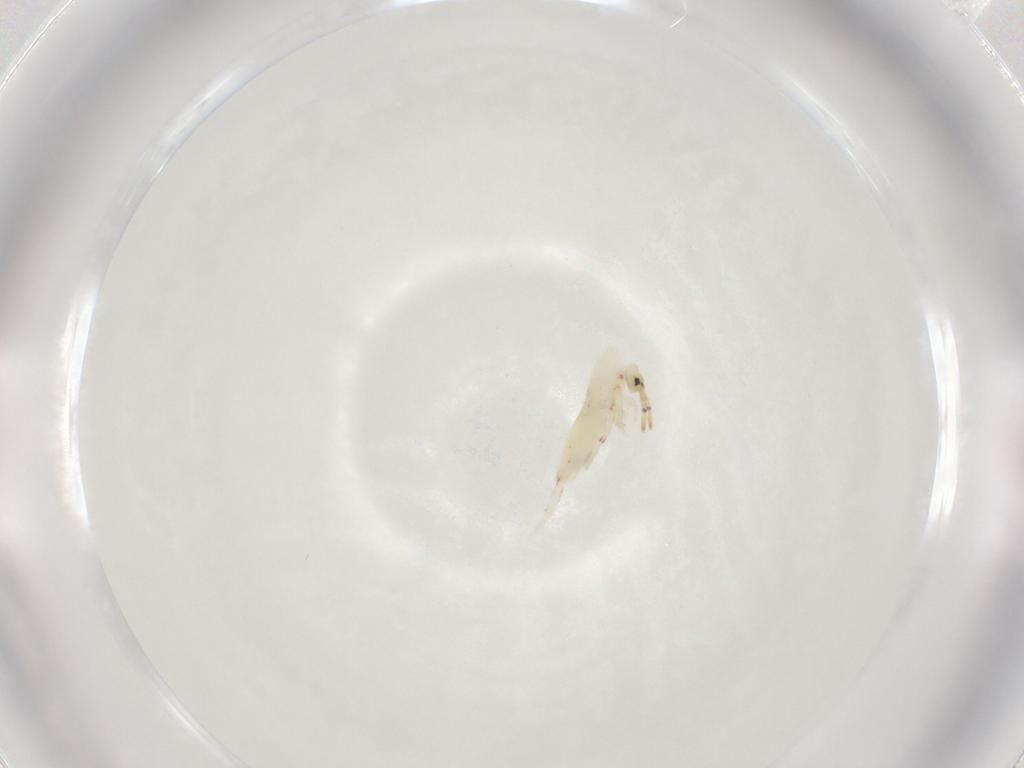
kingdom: Animalia
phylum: Arthropoda
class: Collembola
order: Entomobryomorpha
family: Entomobryidae
